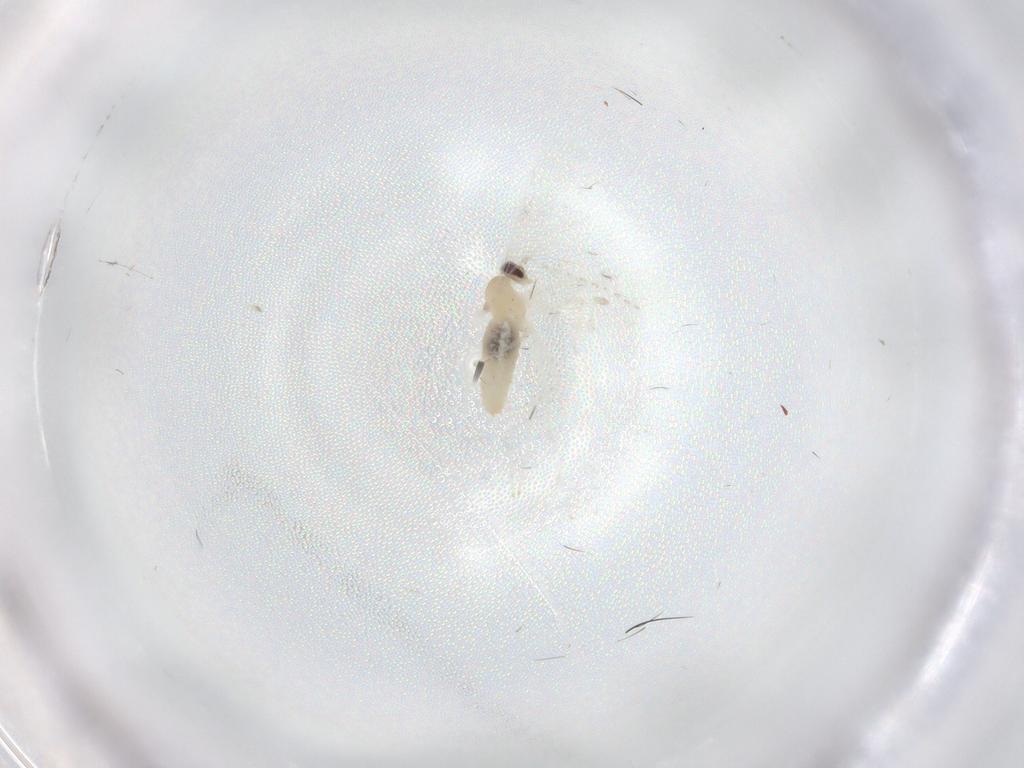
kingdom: Animalia
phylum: Arthropoda
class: Insecta
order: Diptera
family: Cecidomyiidae
